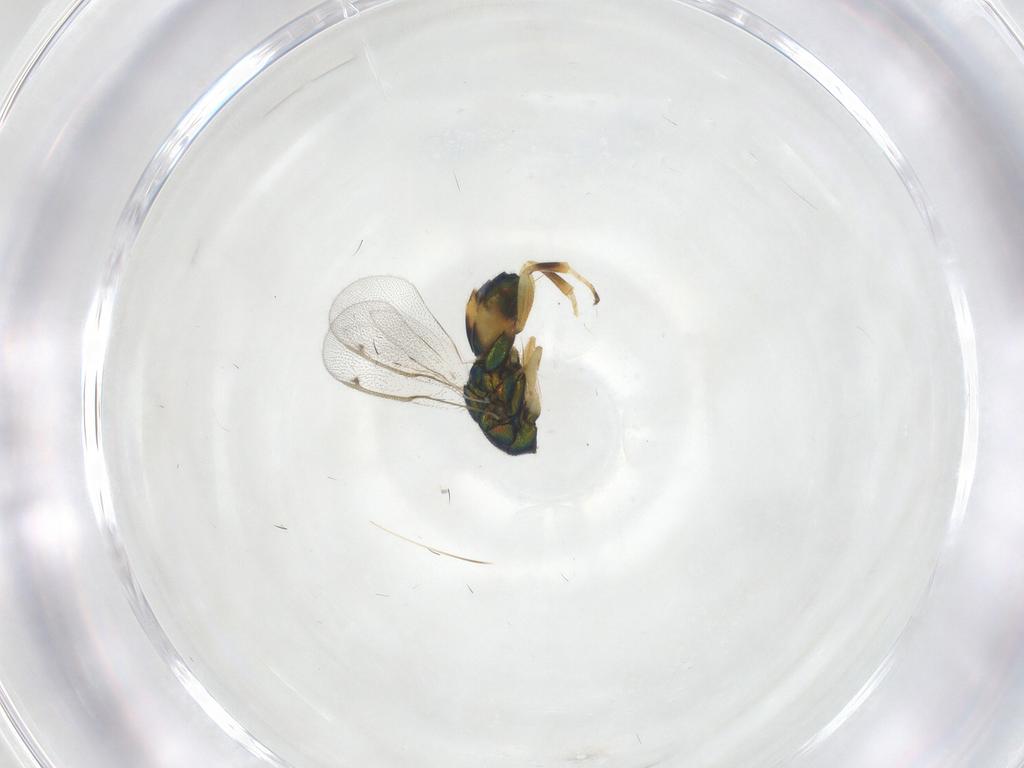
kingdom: Animalia
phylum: Arthropoda
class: Insecta
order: Hymenoptera
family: Torymidae
